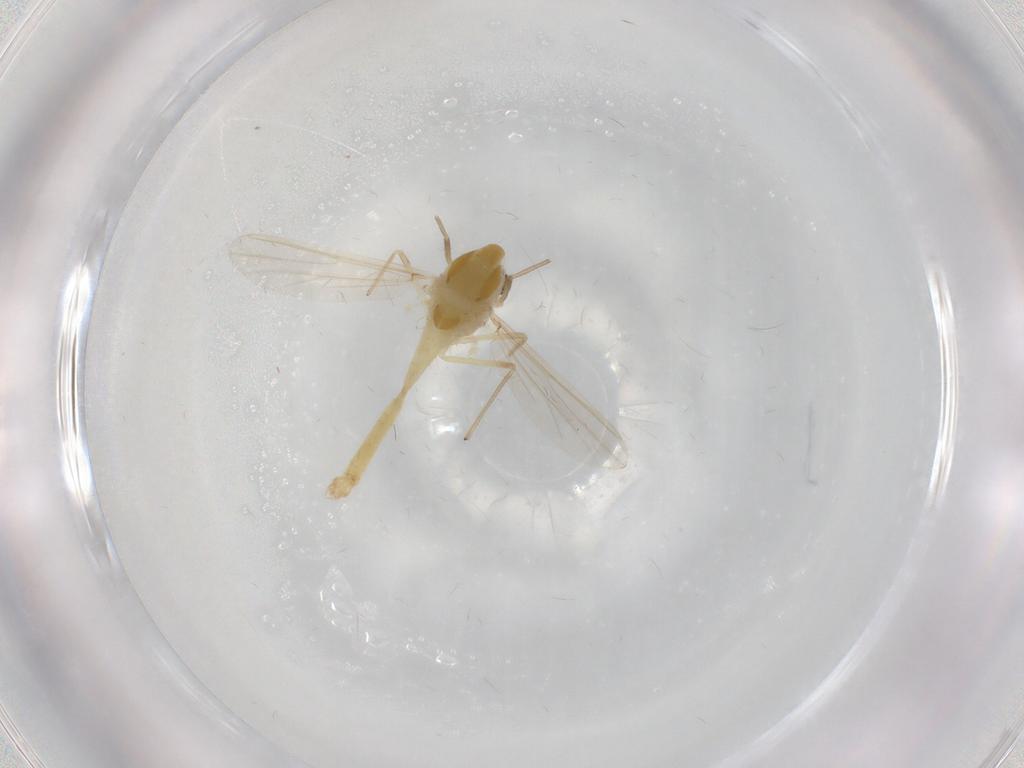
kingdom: Animalia
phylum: Arthropoda
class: Insecta
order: Diptera
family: Chironomidae
